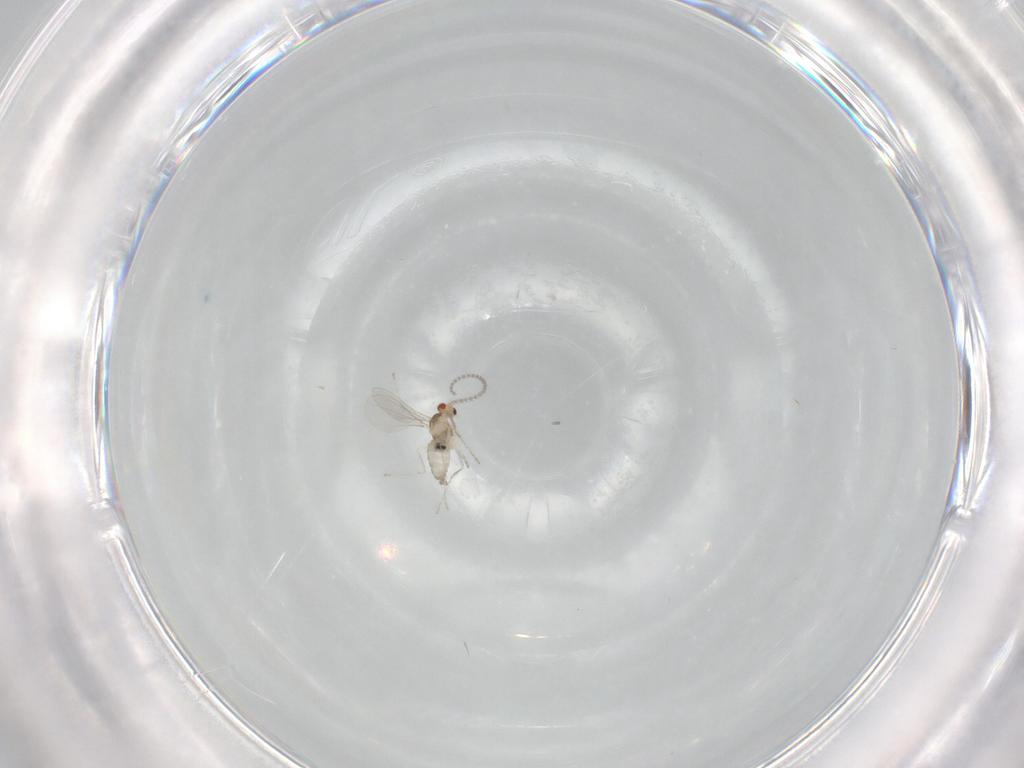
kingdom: Animalia
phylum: Arthropoda
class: Insecta
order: Diptera
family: Cecidomyiidae
